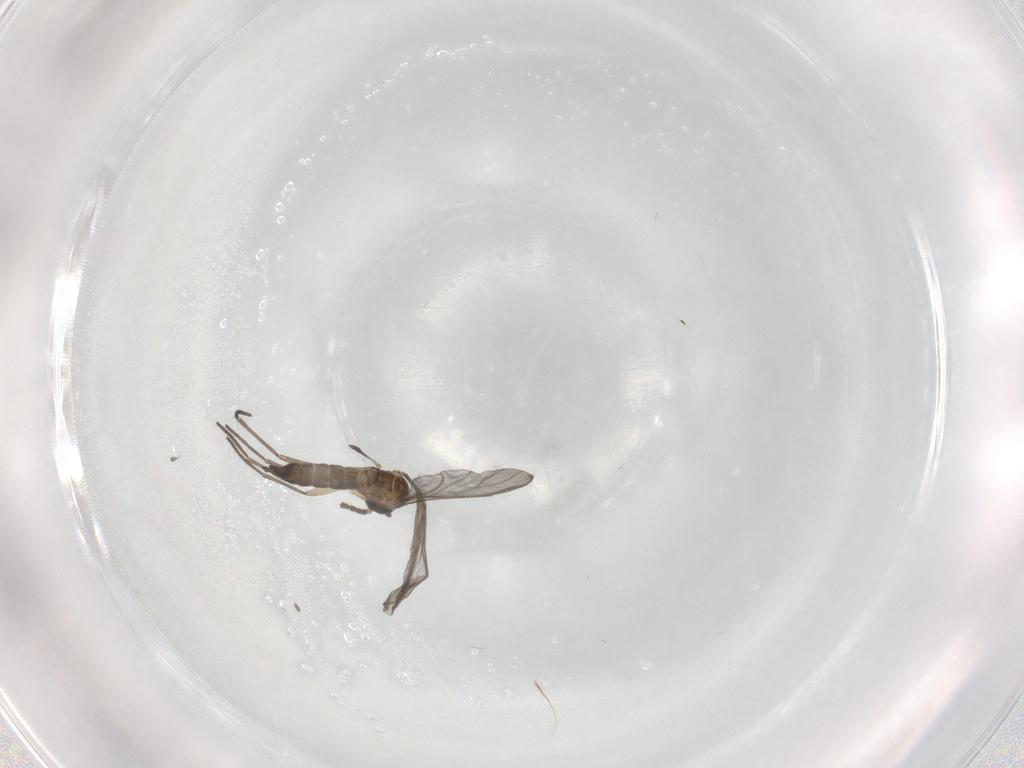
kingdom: Animalia
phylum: Arthropoda
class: Insecta
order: Diptera
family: Sciaridae
